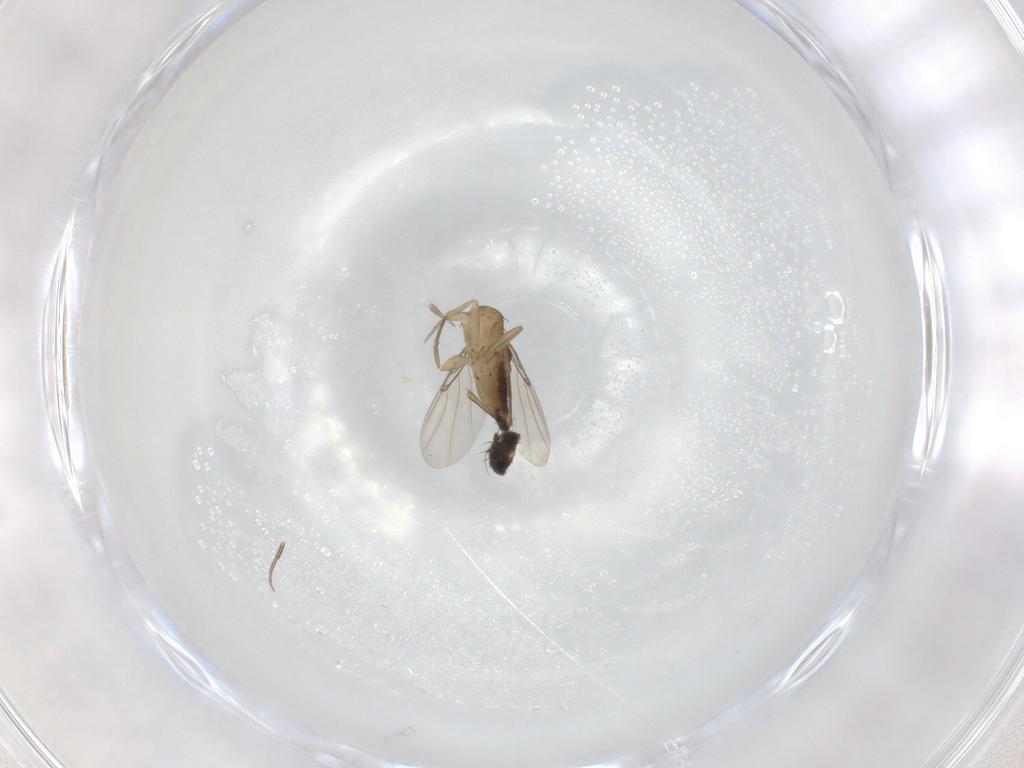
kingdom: Animalia
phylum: Arthropoda
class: Insecta
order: Diptera
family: Phoridae
